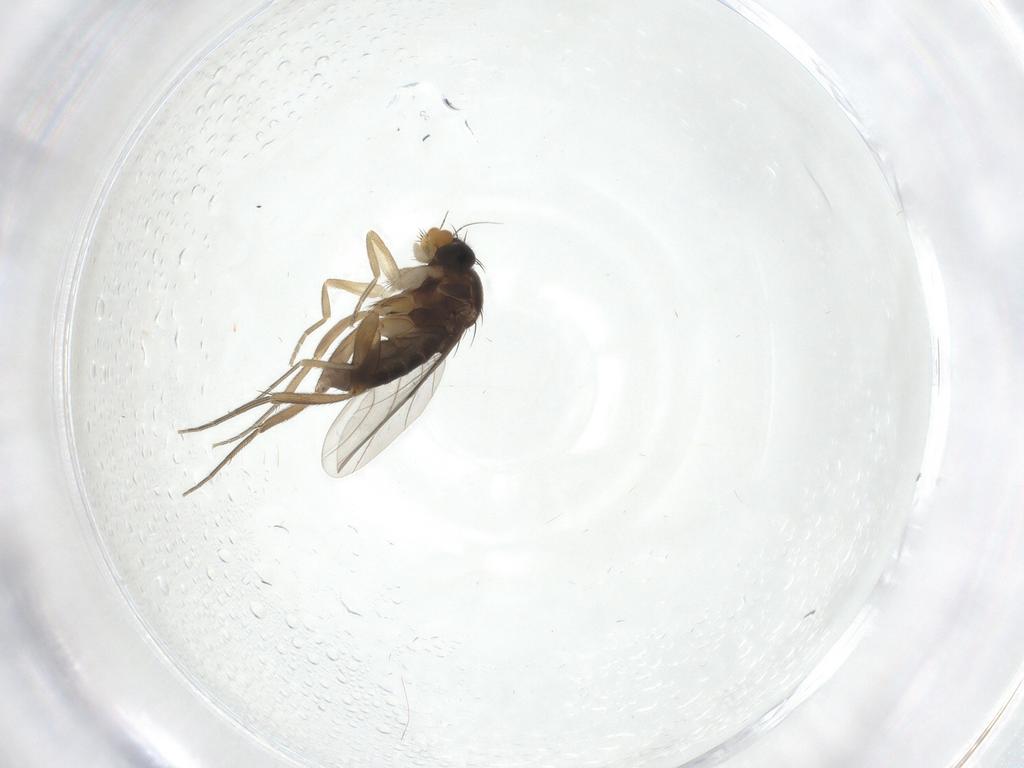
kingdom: Animalia
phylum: Arthropoda
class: Insecta
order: Diptera
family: Phoridae
